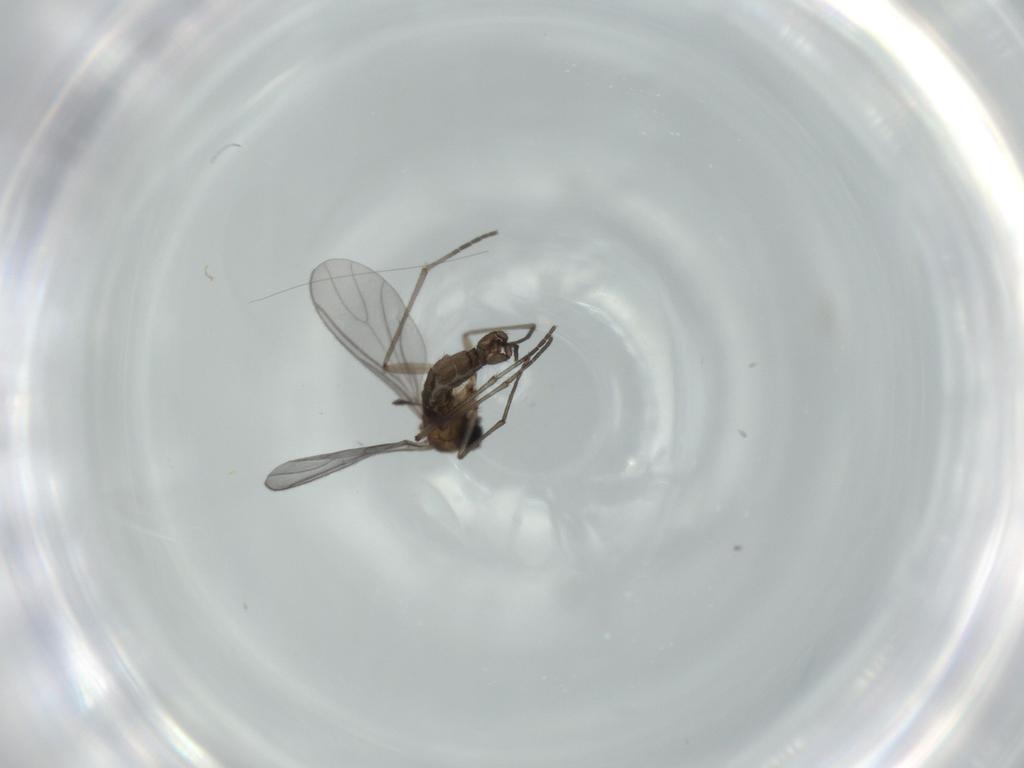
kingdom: Animalia
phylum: Arthropoda
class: Insecta
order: Diptera
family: Sciaridae
